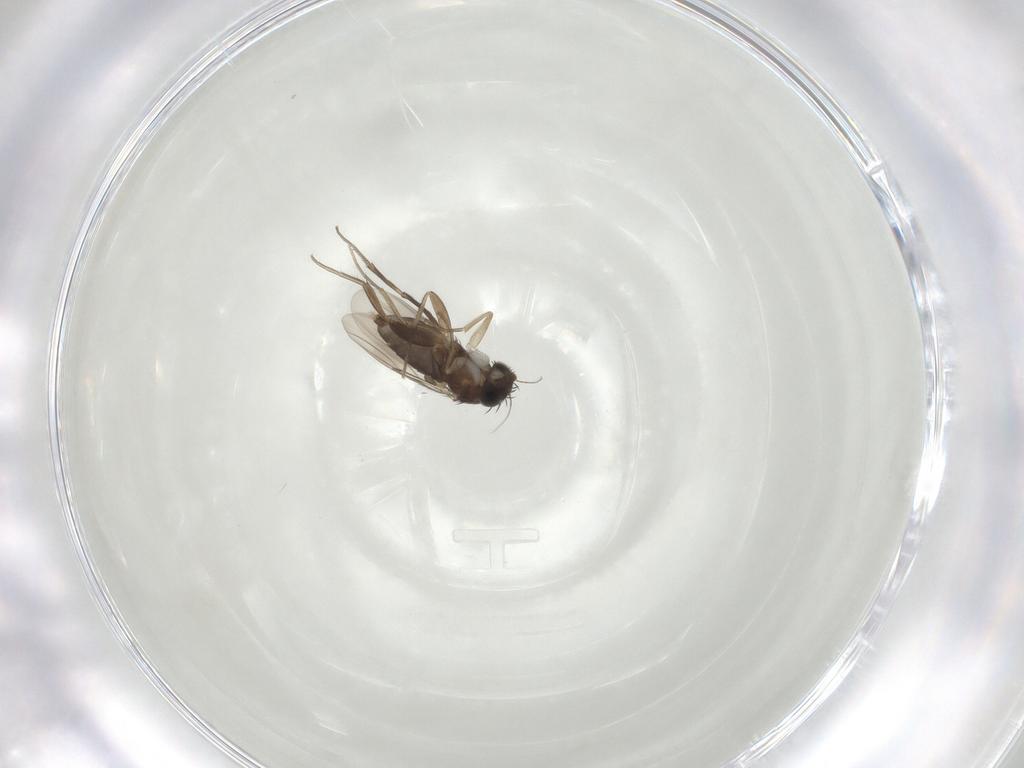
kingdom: Animalia
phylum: Arthropoda
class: Insecta
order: Diptera
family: Phoridae
